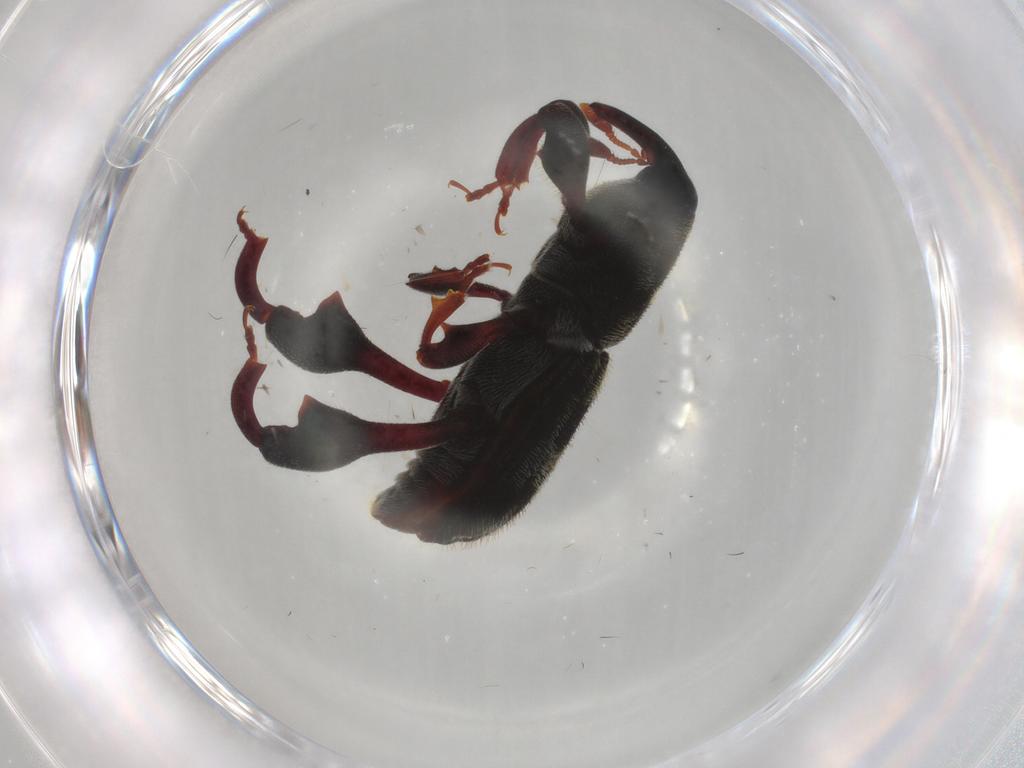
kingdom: Animalia
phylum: Arthropoda
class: Insecta
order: Coleoptera
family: Curculionidae
